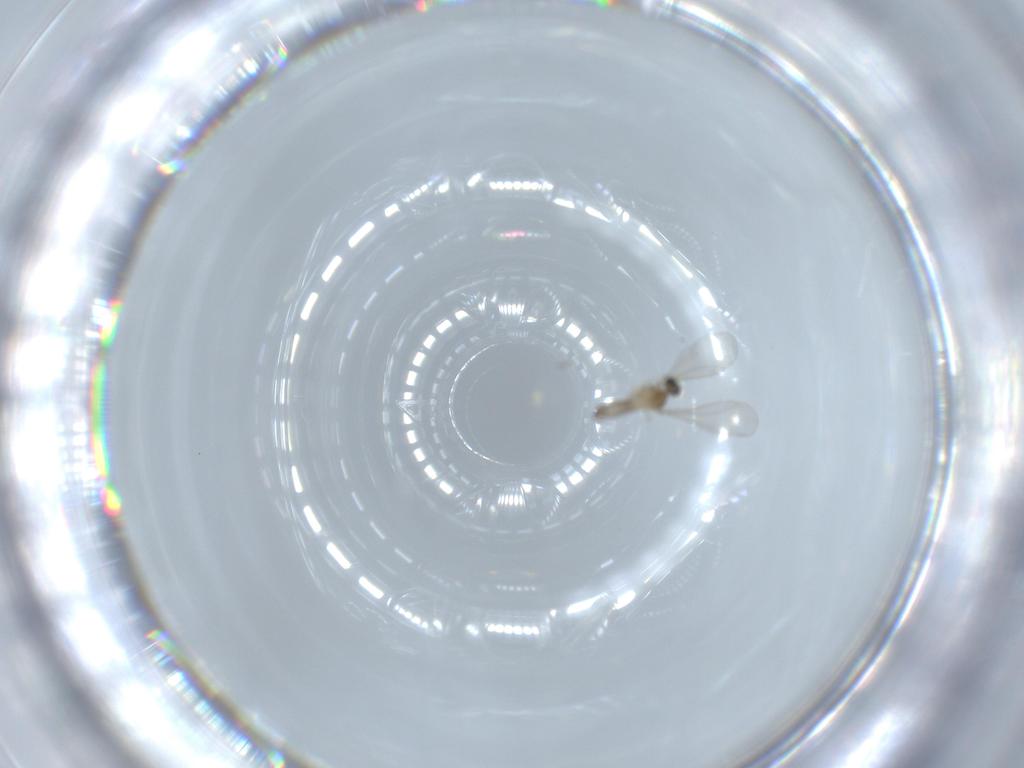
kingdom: Animalia
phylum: Arthropoda
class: Insecta
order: Diptera
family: Cecidomyiidae
